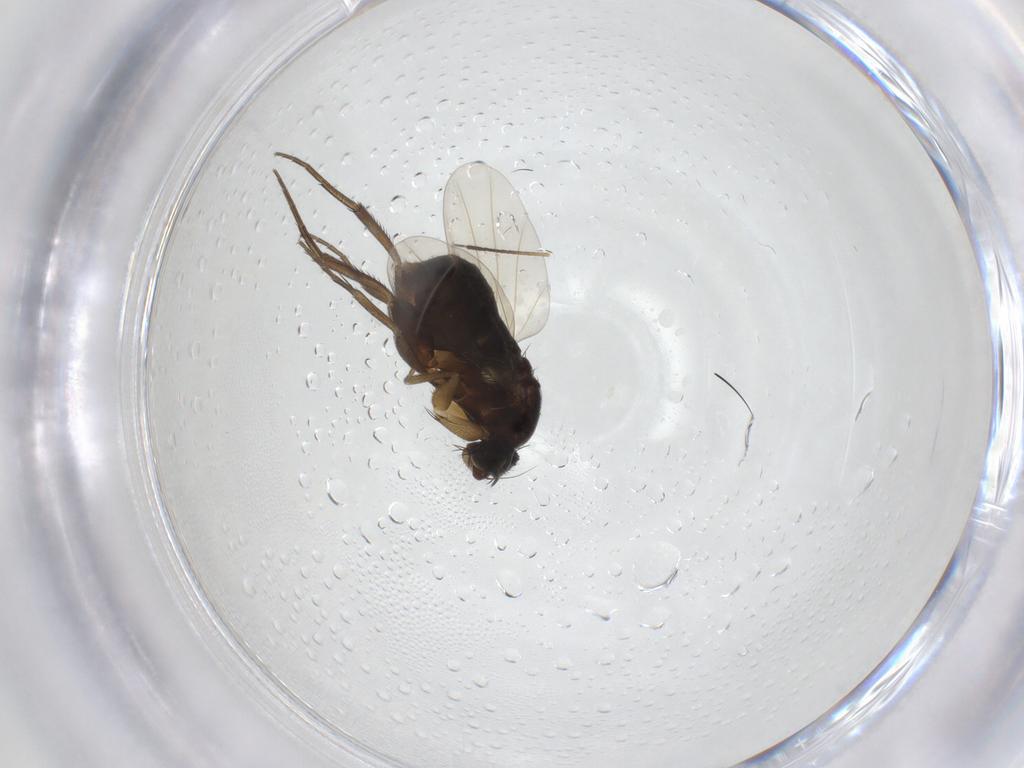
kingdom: Animalia
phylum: Arthropoda
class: Insecta
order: Diptera
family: Phoridae
